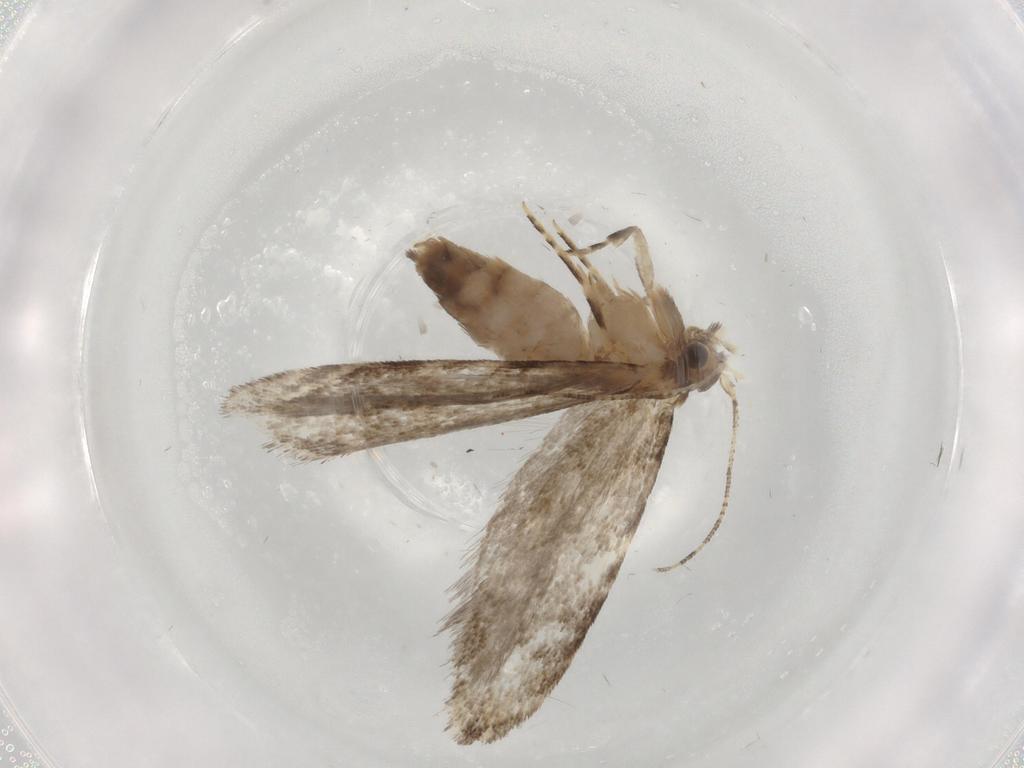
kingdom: Animalia
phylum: Arthropoda
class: Insecta
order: Lepidoptera
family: Tineidae
